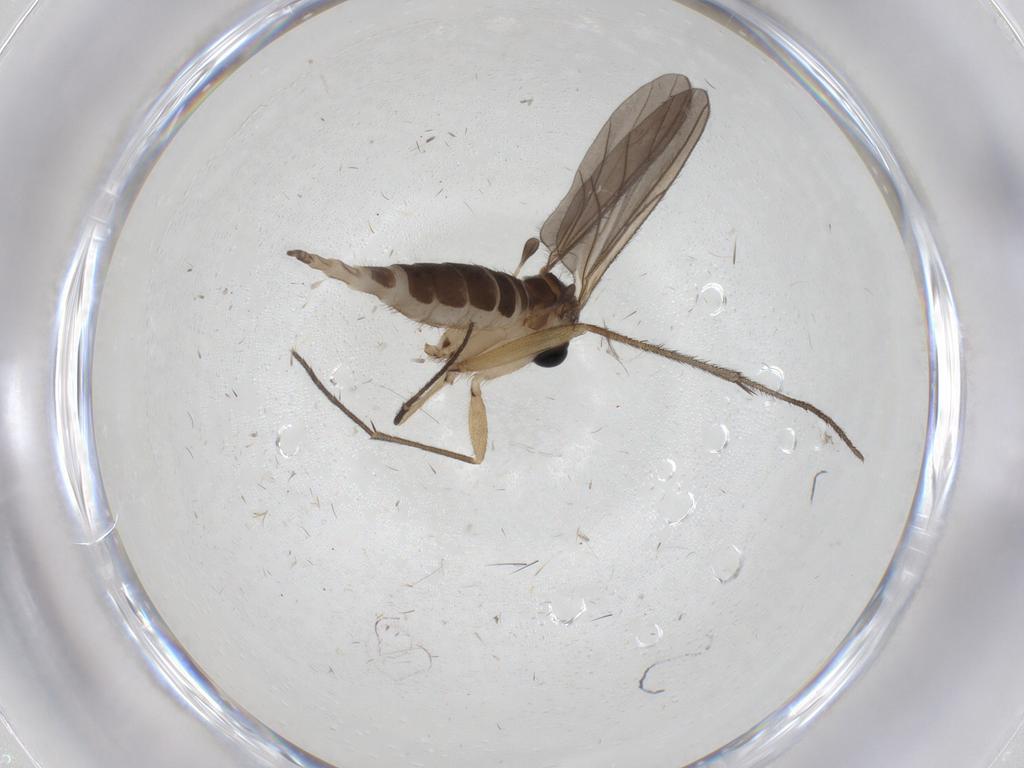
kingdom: Animalia
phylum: Arthropoda
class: Insecta
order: Diptera
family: Sciaridae
